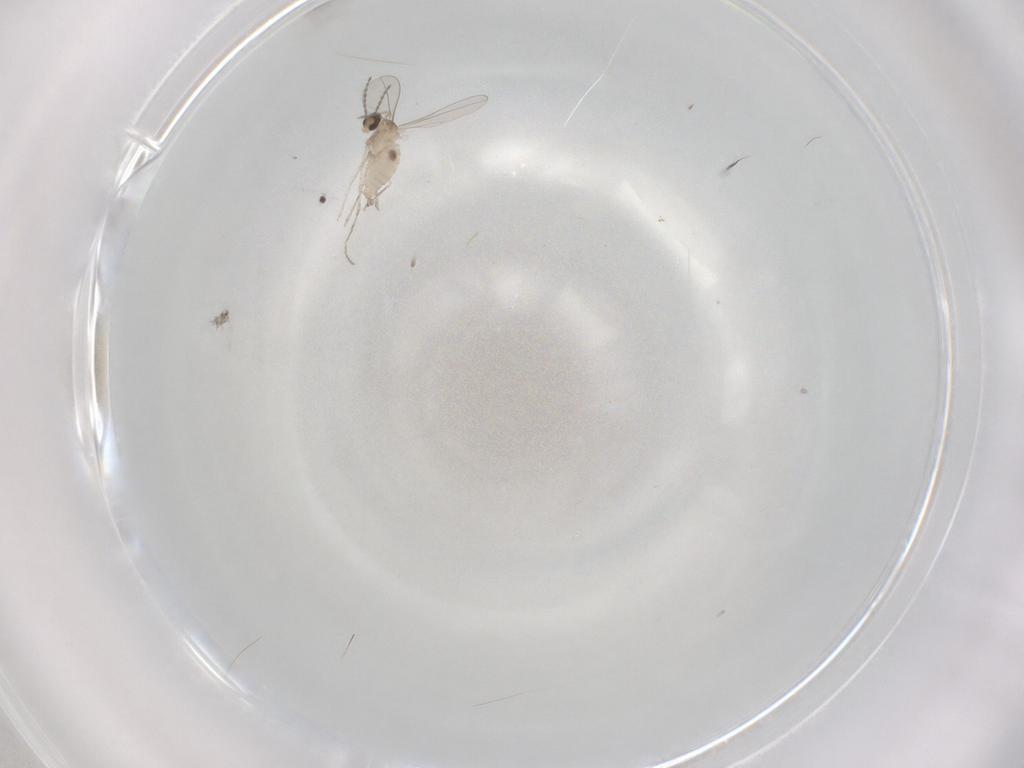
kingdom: Animalia
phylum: Arthropoda
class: Insecta
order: Diptera
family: Cecidomyiidae
